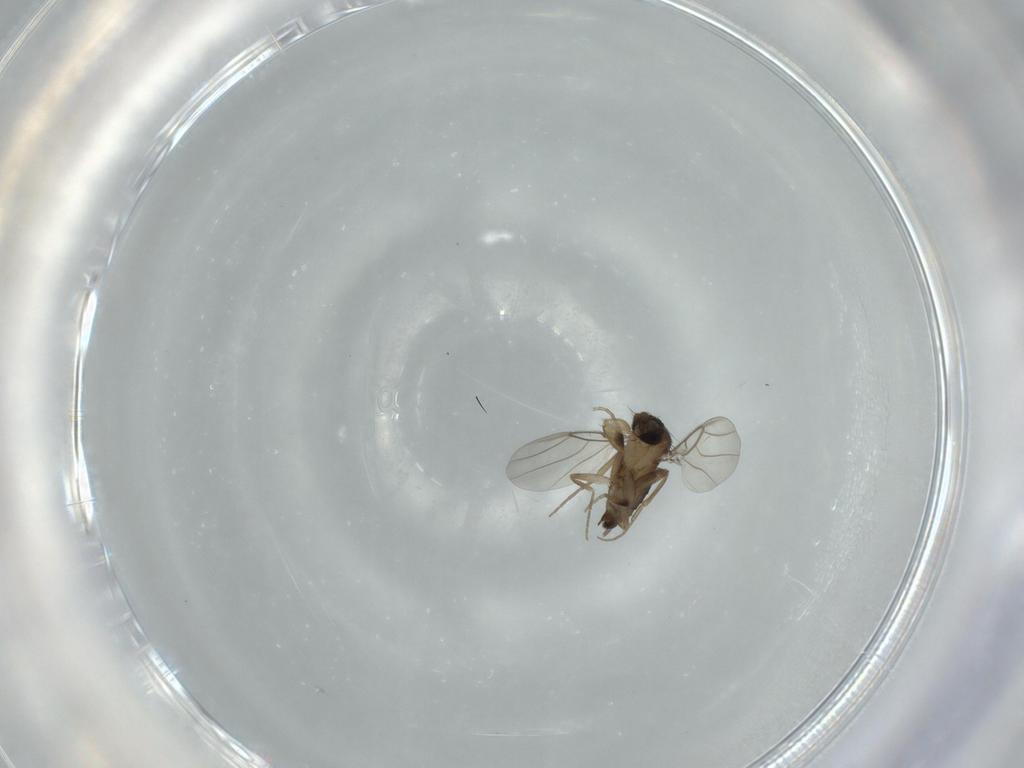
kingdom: Animalia
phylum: Arthropoda
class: Insecta
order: Diptera
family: Phoridae
